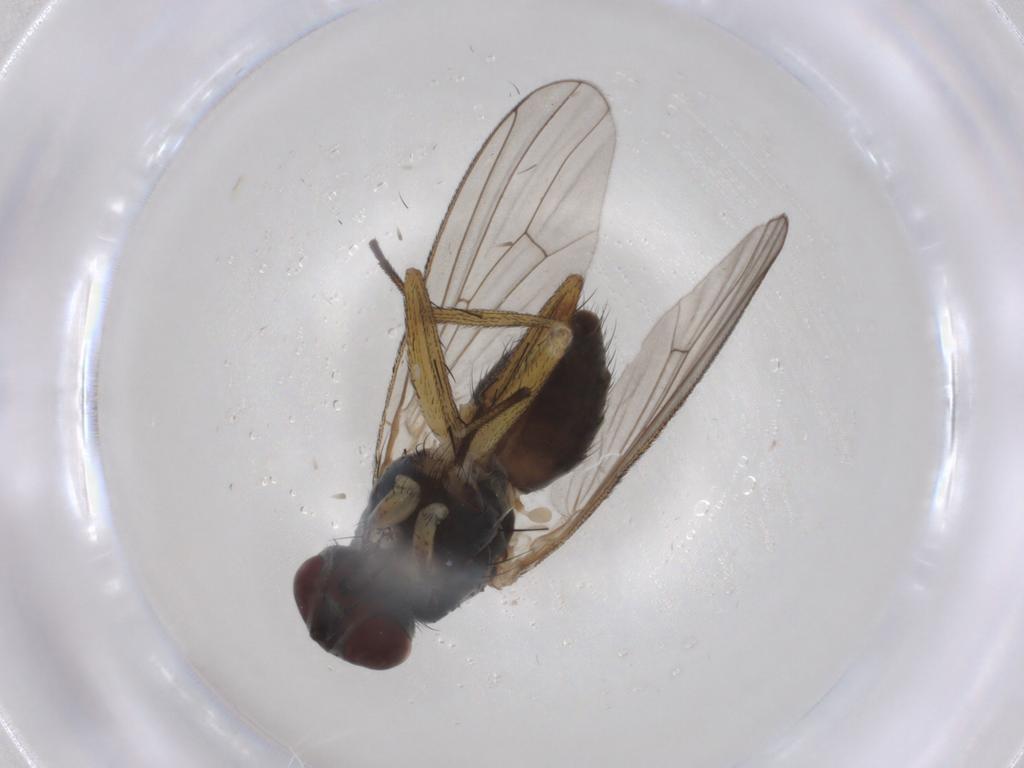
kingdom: Animalia
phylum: Arthropoda
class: Insecta
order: Diptera
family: Muscidae
